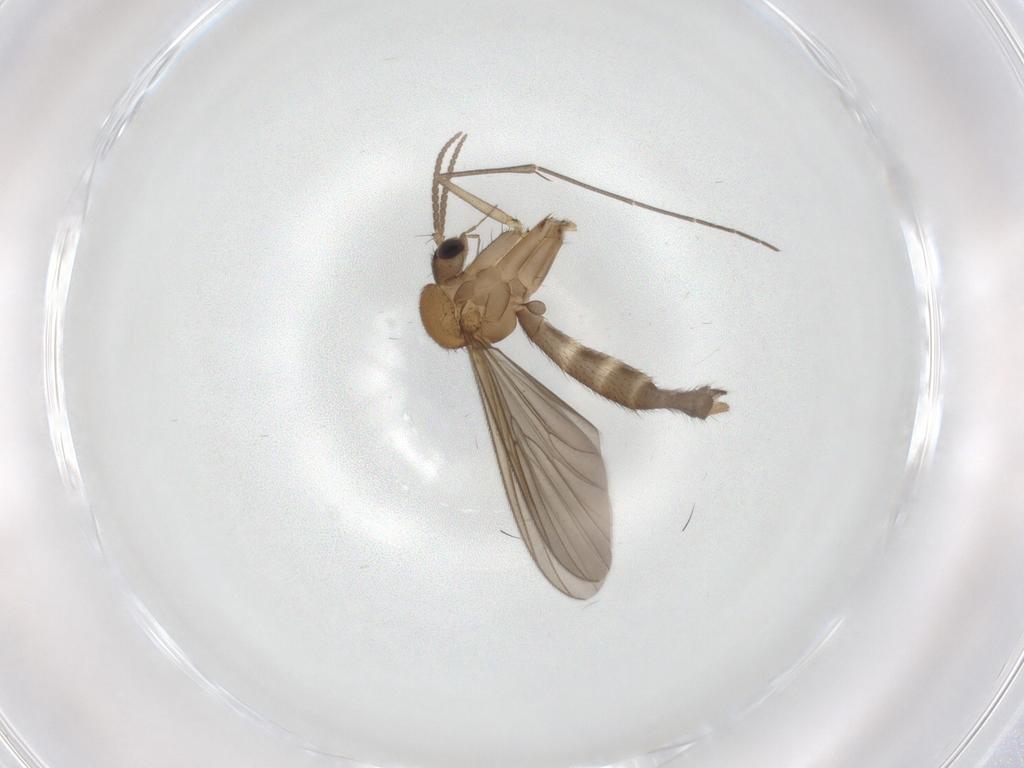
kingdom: Animalia
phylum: Arthropoda
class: Insecta
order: Diptera
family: Mycetophilidae
